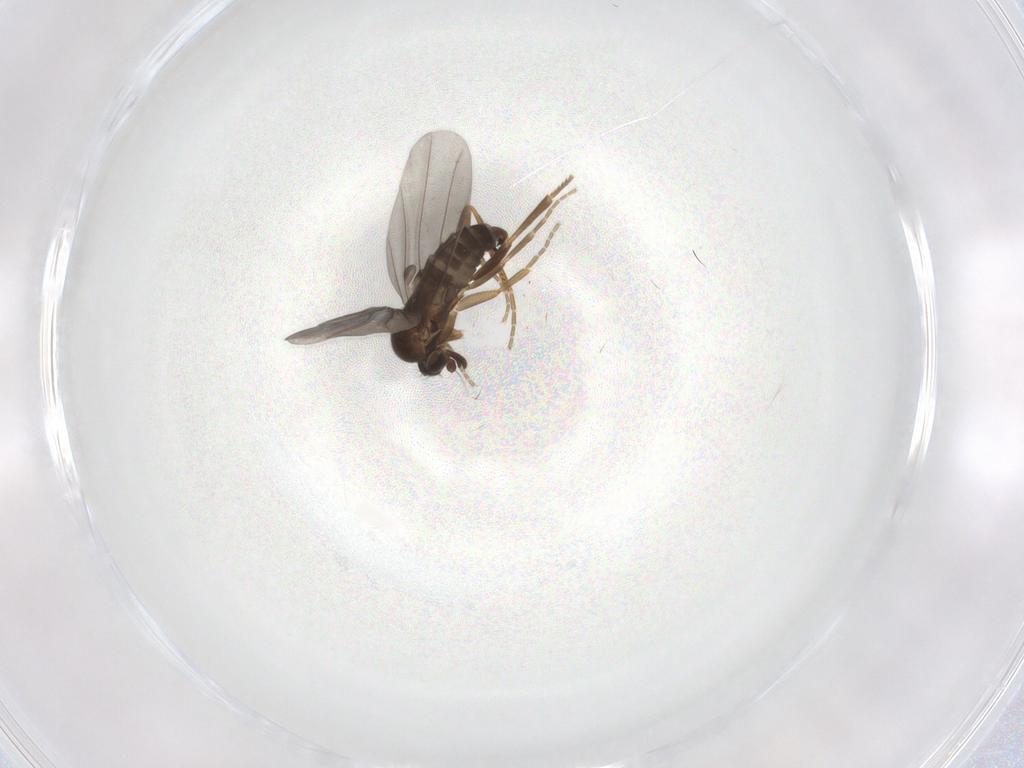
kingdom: Animalia
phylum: Arthropoda
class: Insecta
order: Diptera
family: Phoridae
